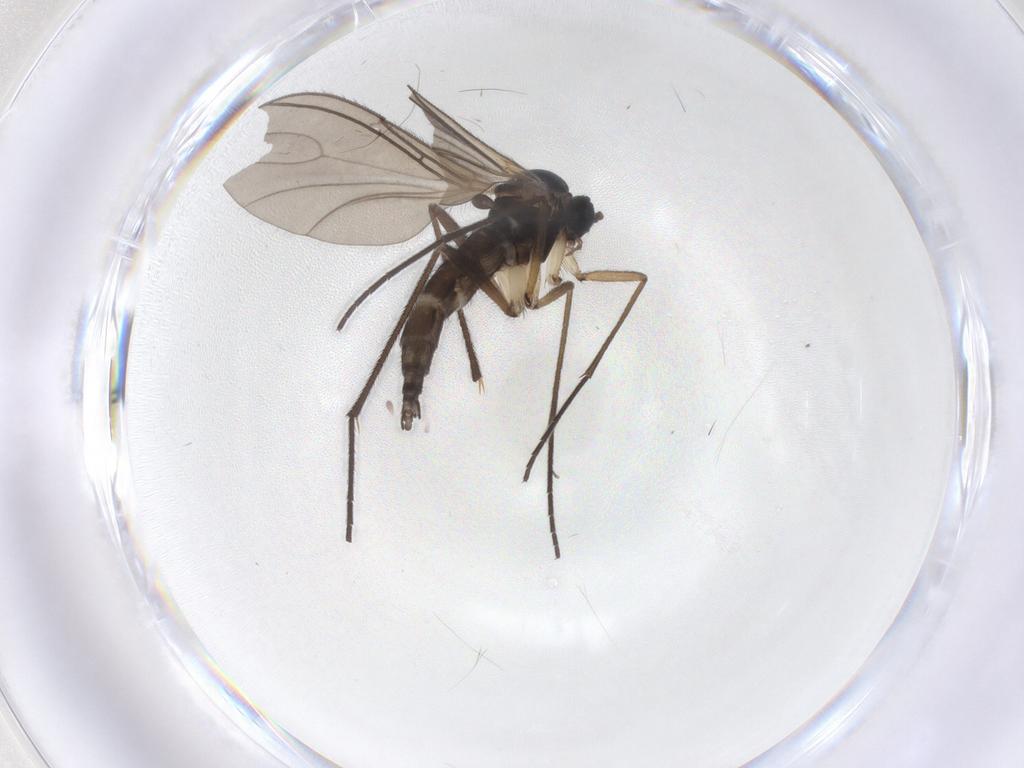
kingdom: Animalia
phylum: Arthropoda
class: Insecta
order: Diptera
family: Sciaridae
